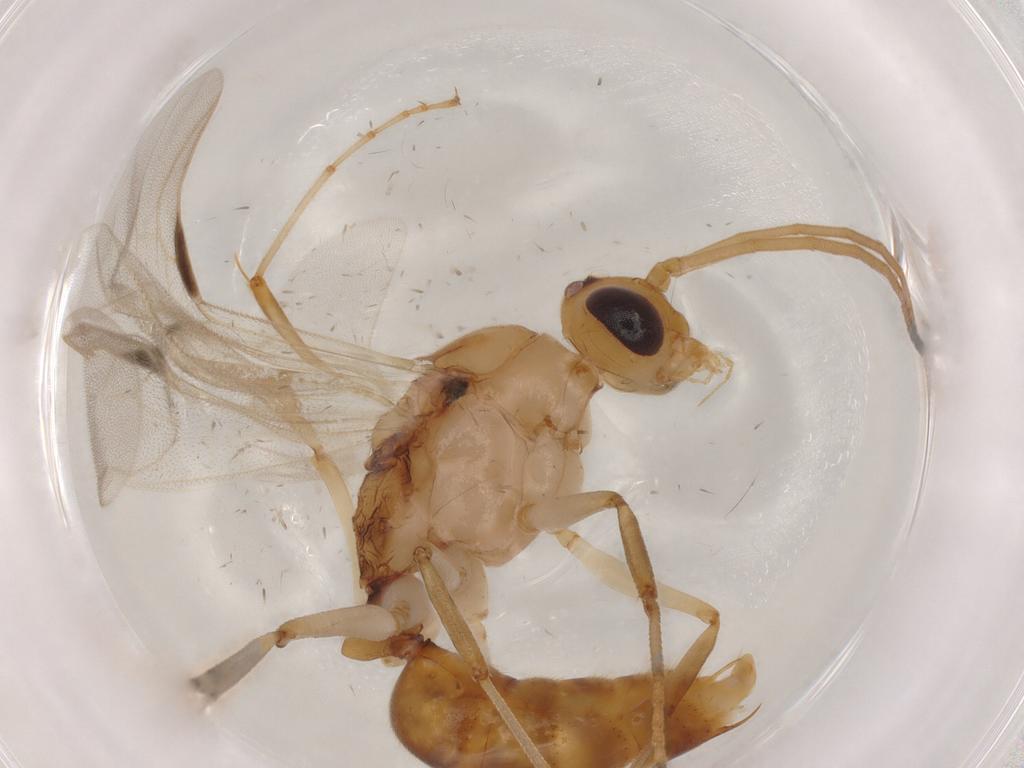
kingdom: Animalia
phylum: Arthropoda
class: Insecta
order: Hymenoptera
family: Formicidae
